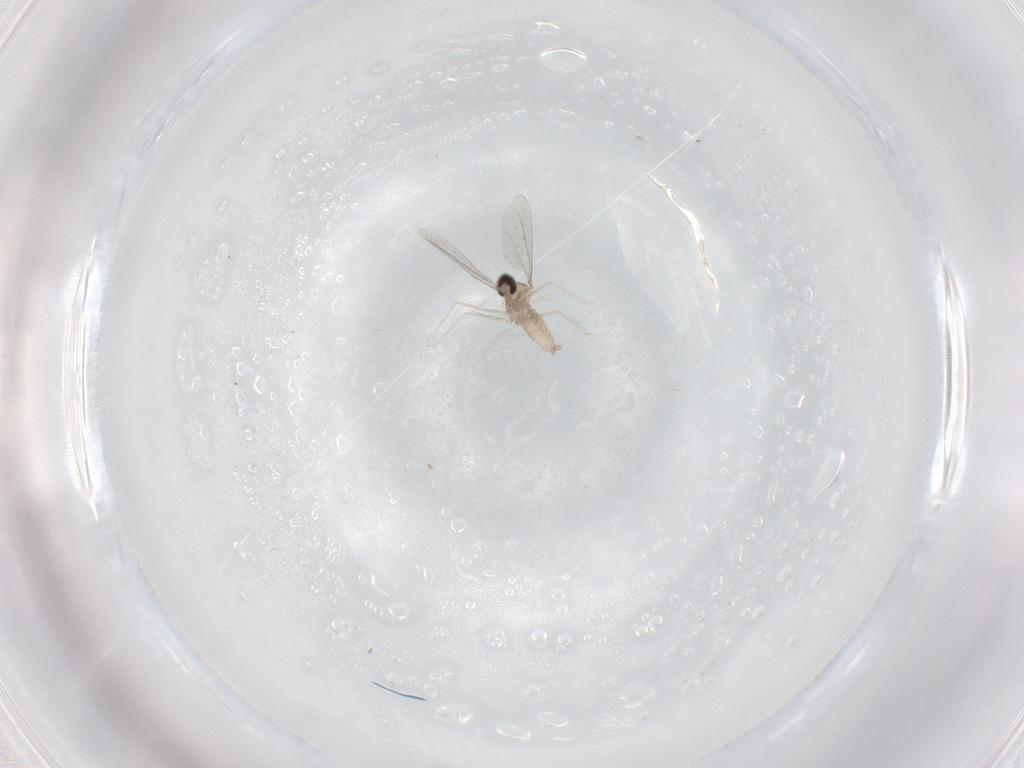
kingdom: Animalia
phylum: Arthropoda
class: Insecta
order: Diptera
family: Cecidomyiidae
